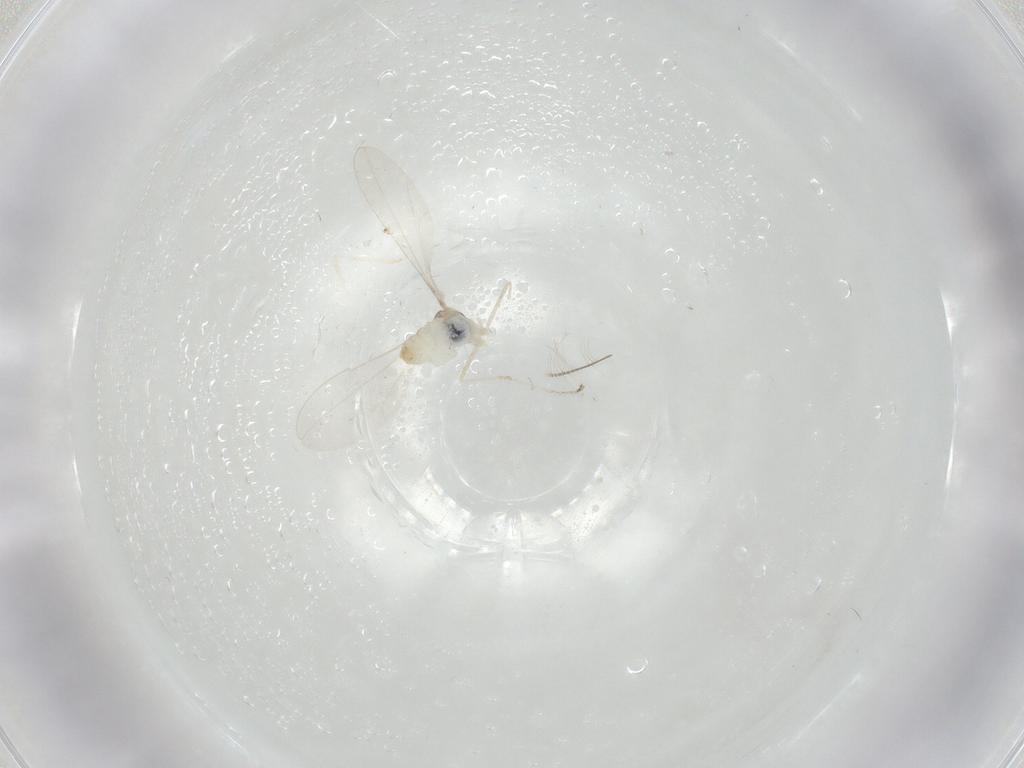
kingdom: Animalia
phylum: Arthropoda
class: Insecta
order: Diptera
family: Cecidomyiidae
